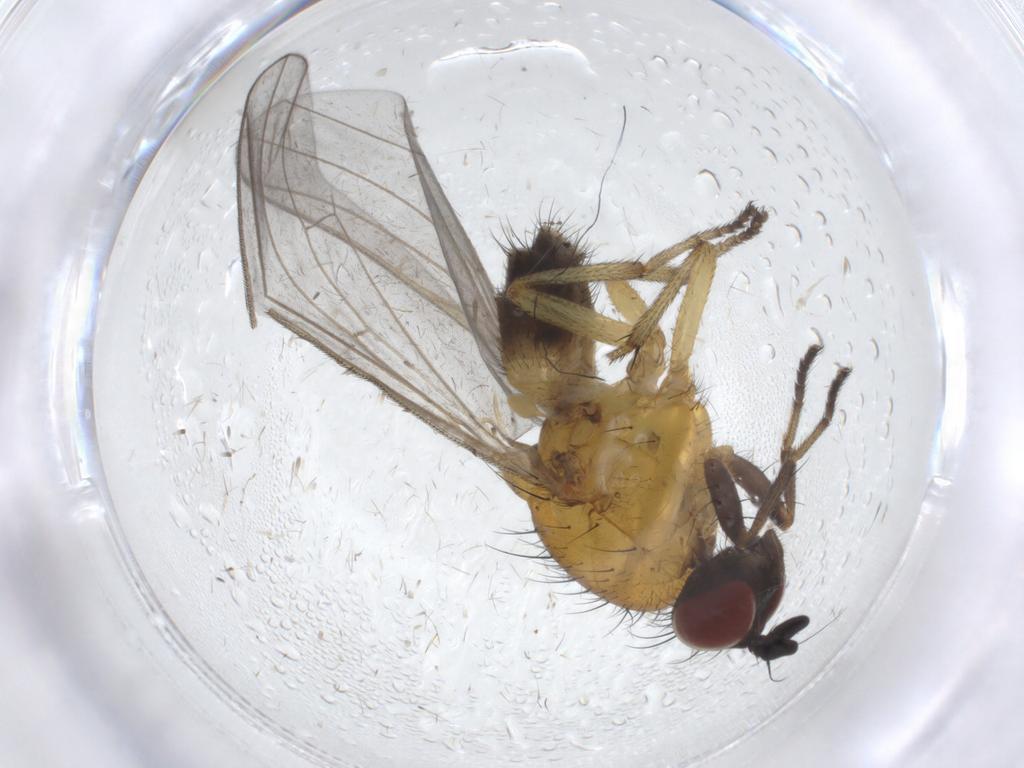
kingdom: Animalia
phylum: Arthropoda
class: Insecta
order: Diptera
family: Mycetophilidae
